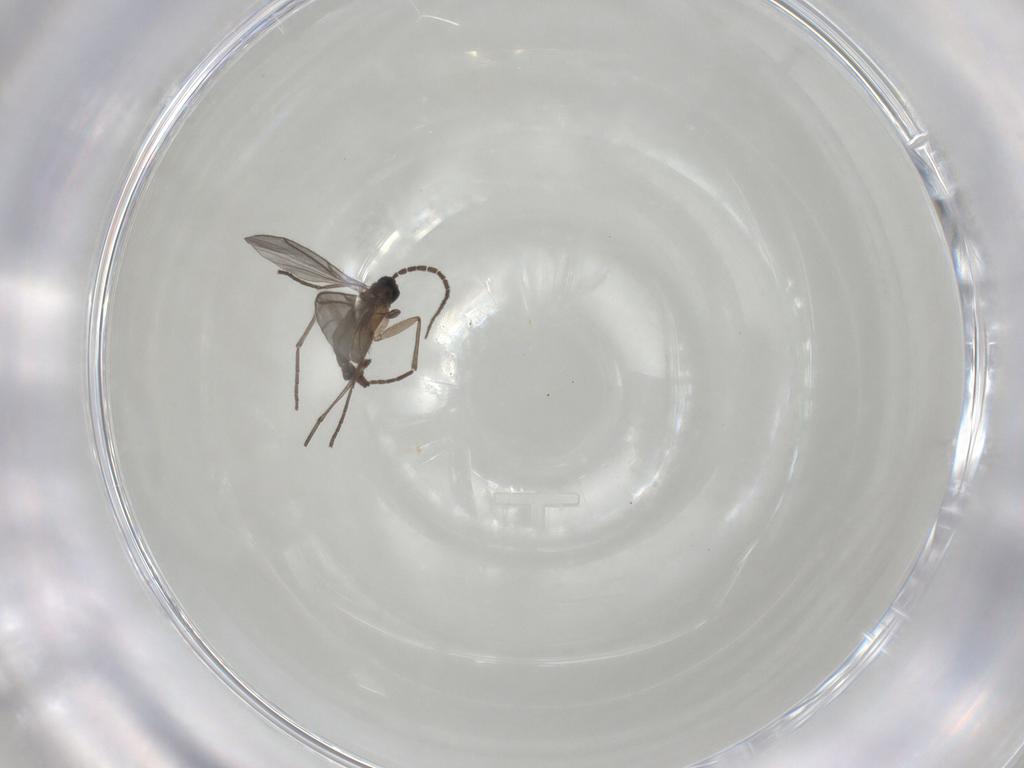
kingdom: Animalia
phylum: Arthropoda
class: Insecta
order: Diptera
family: Sciaridae
